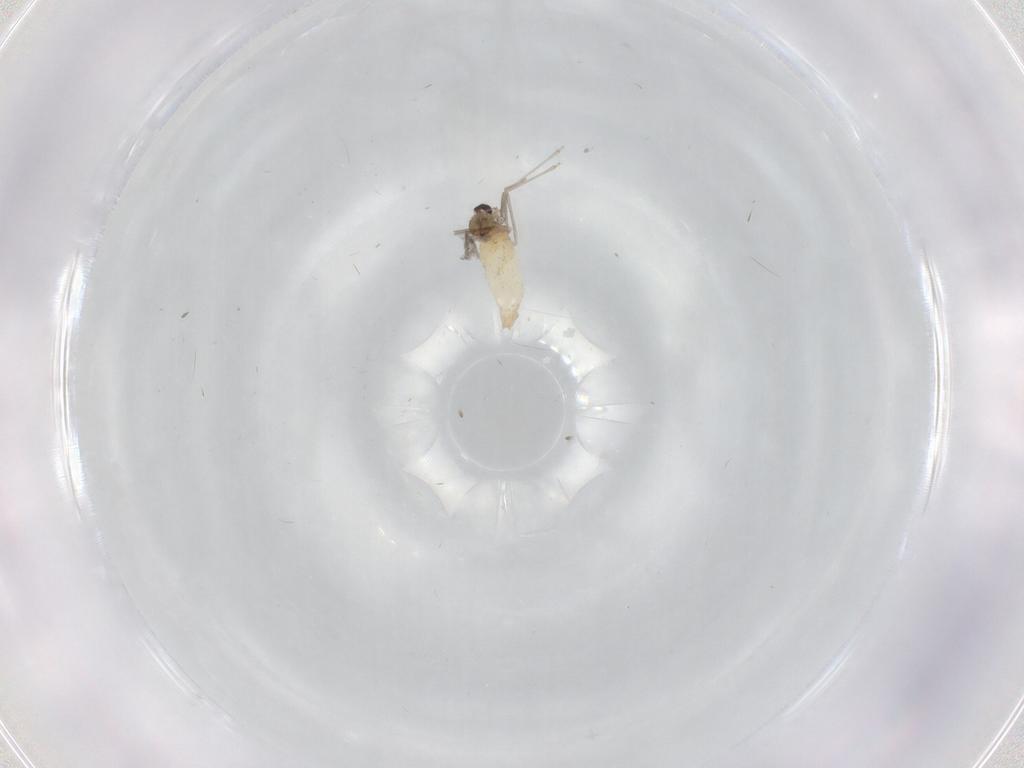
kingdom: Animalia
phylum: Arthropoda
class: Insecta
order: Diptera
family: Cecidomyiidae
